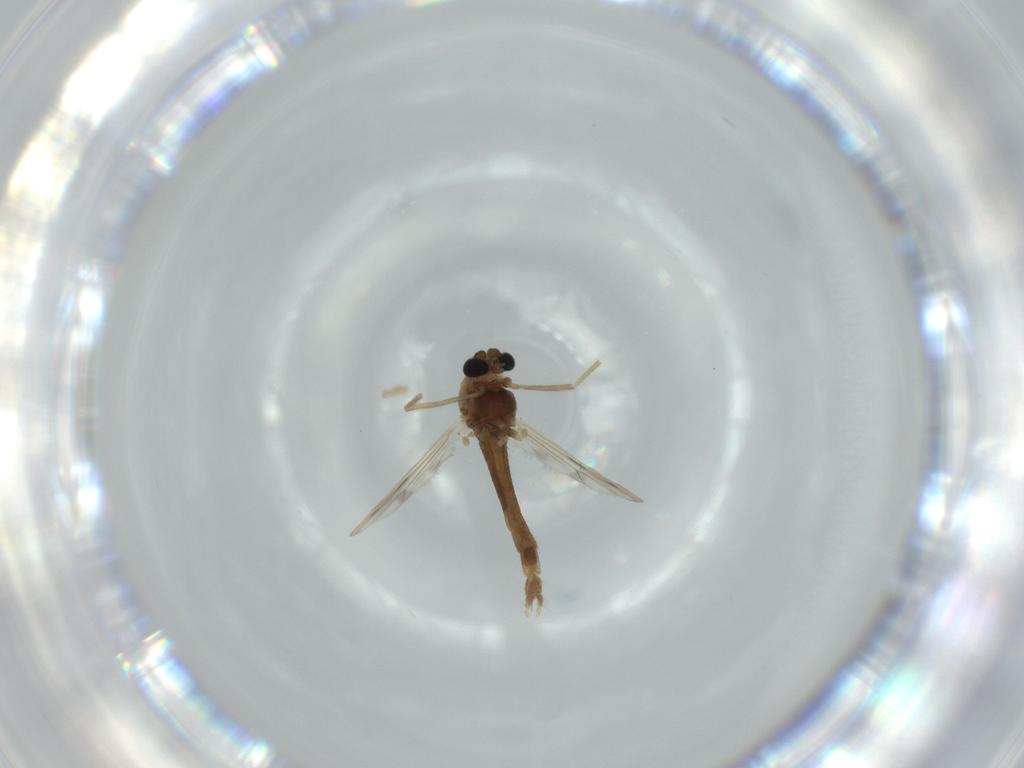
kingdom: Animalia
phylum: Arthropoda
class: Insecta
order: Diptera
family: Chironomidae
